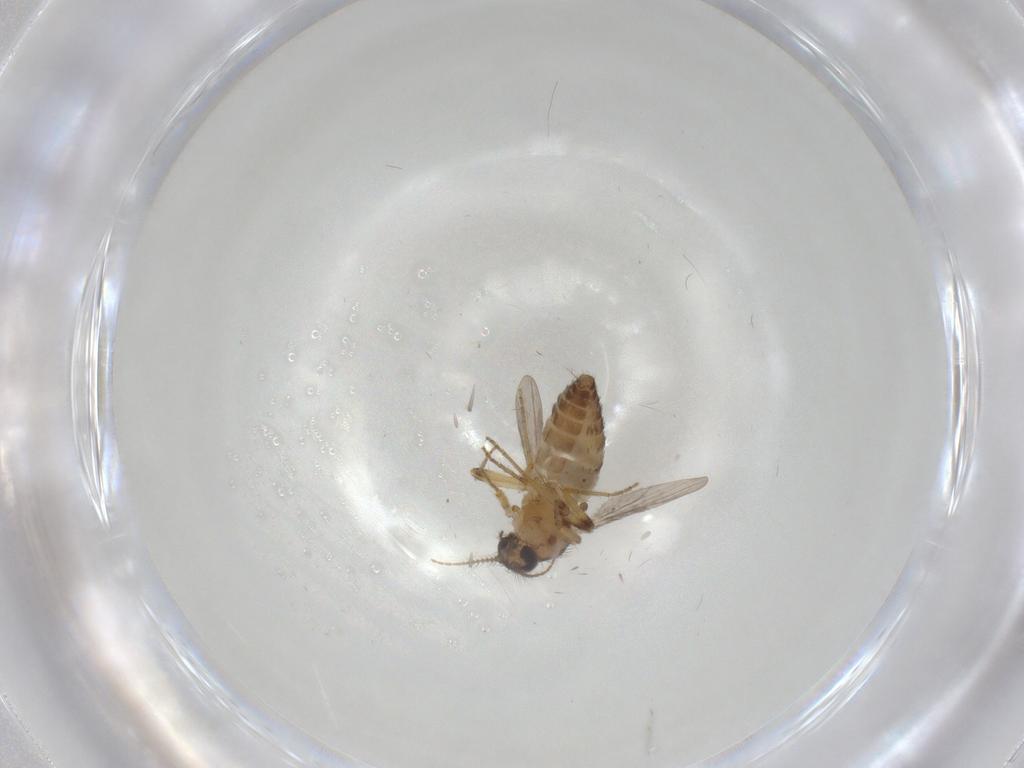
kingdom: Animalia
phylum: Arthropoda
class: Insecta
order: Diptera
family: Ceratopogonidae
